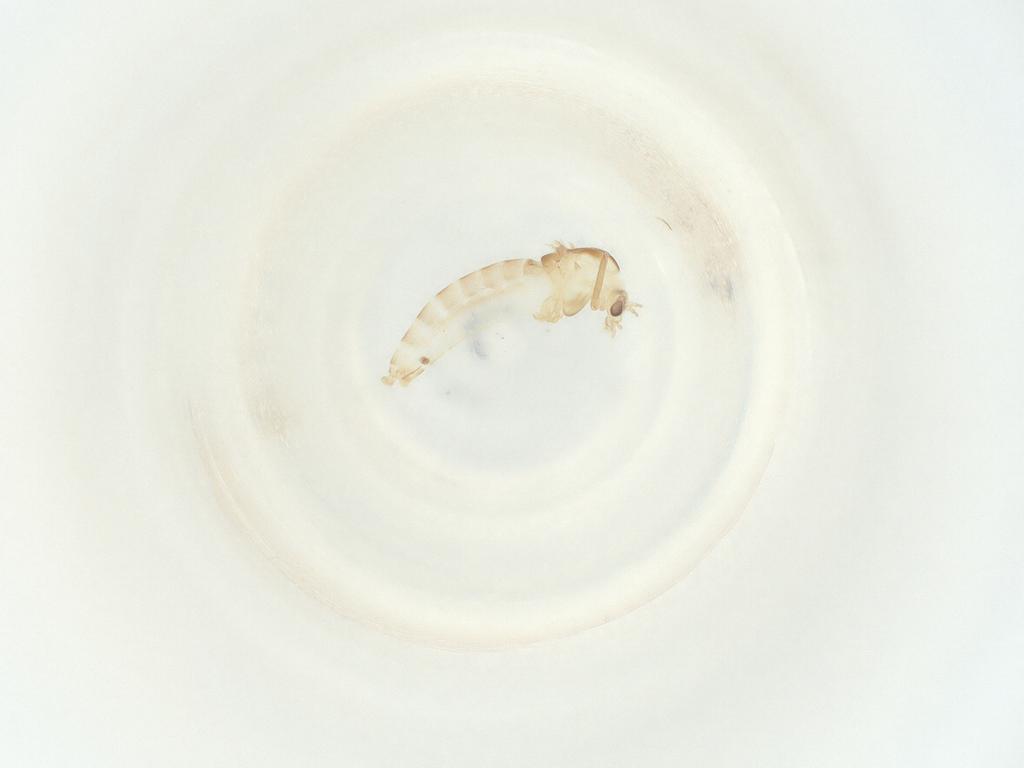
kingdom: Animalia
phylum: Arthropoda
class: Insecta
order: Diptera
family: Chironomidae
